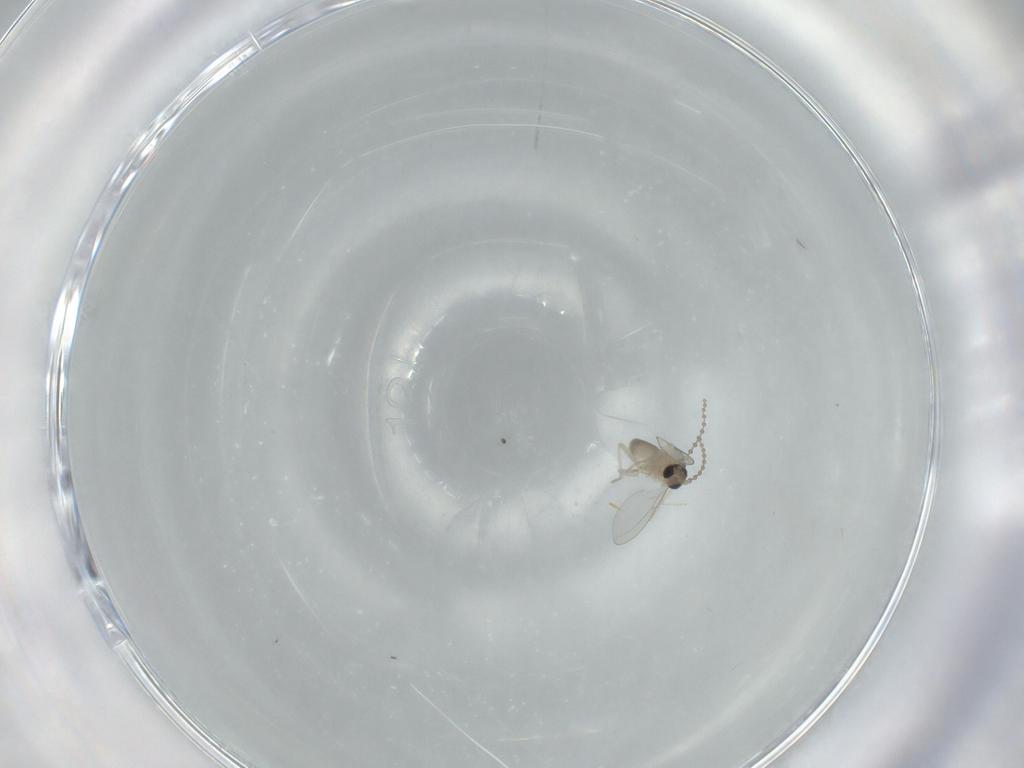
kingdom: Animalia
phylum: Arthropoda
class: Insecta
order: Diptera
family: Cecidomyiidae
